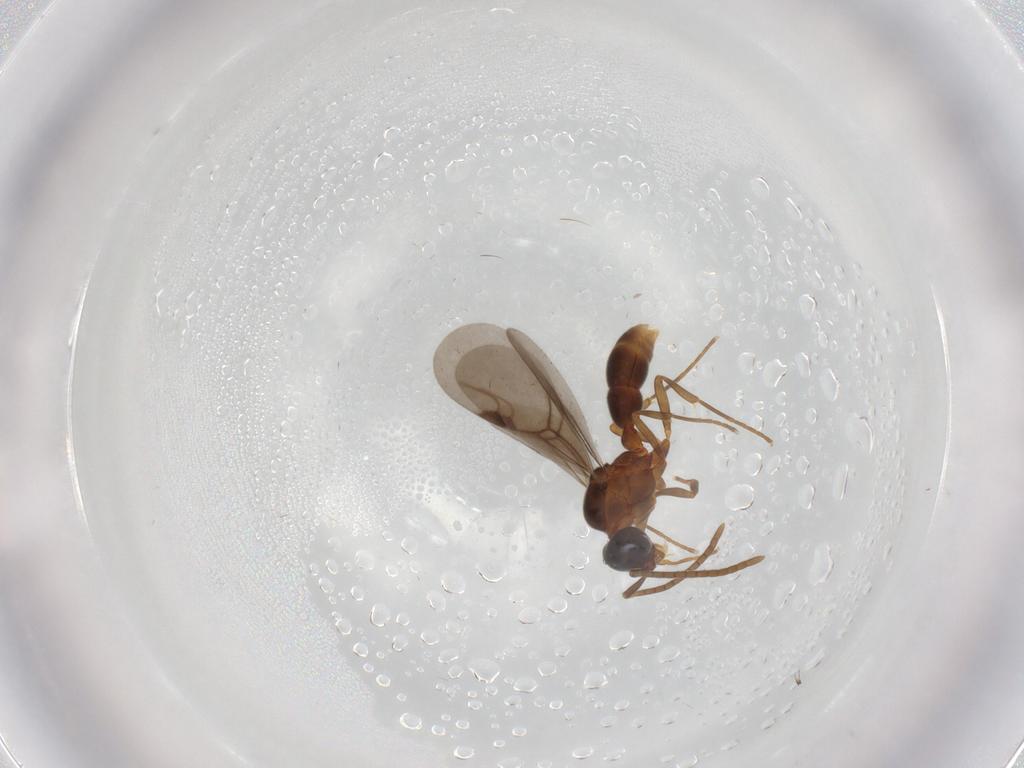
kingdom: Animalia
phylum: Arthropoda
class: Insecta
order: Hymenoptera
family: Formicidae
